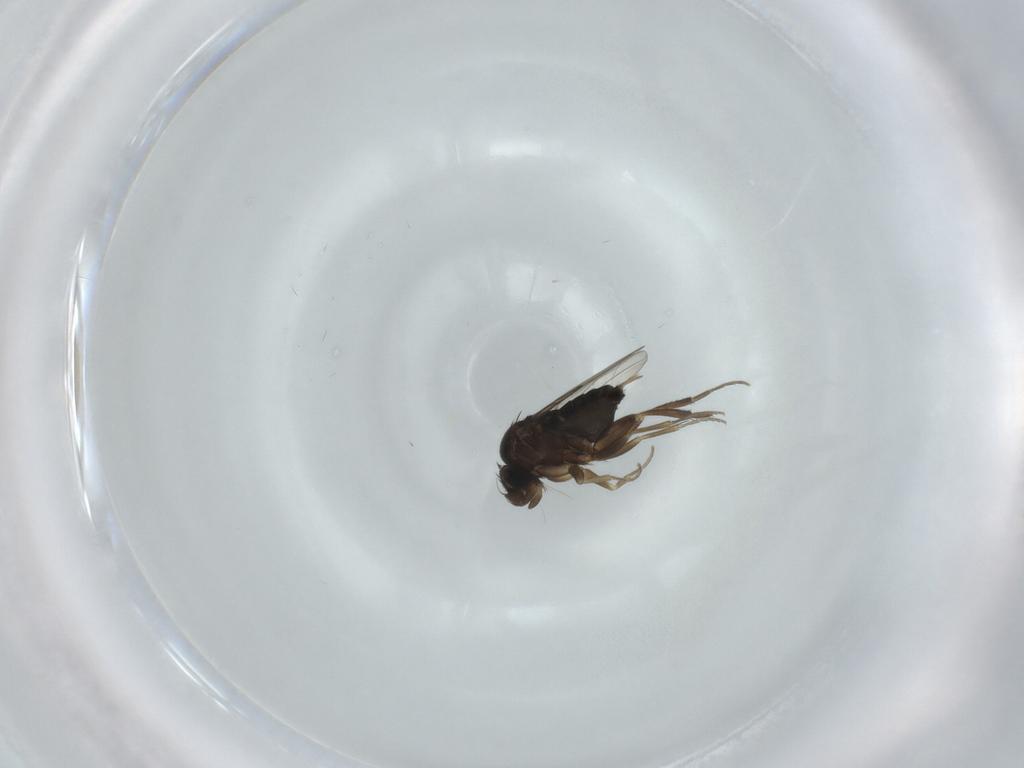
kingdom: Animalia
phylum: Arthropoda
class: Insecta
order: Diptera
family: Phoridae
